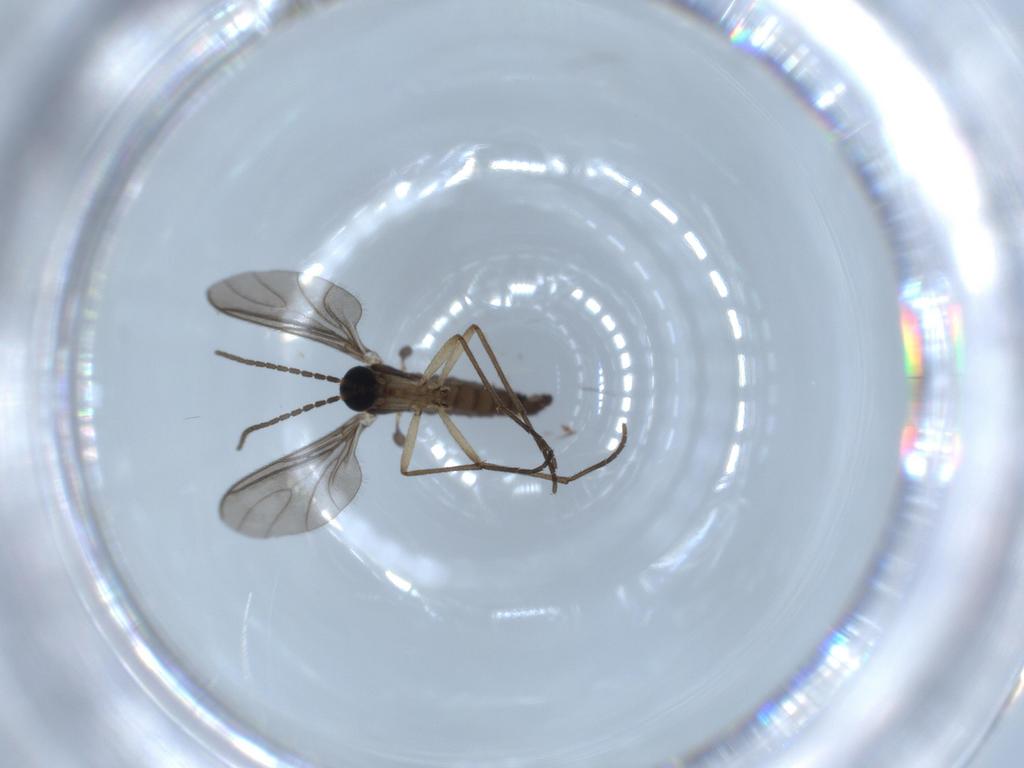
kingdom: Animalia
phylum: Arthropoda
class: Insecta
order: Diptera
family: Sciaridae
